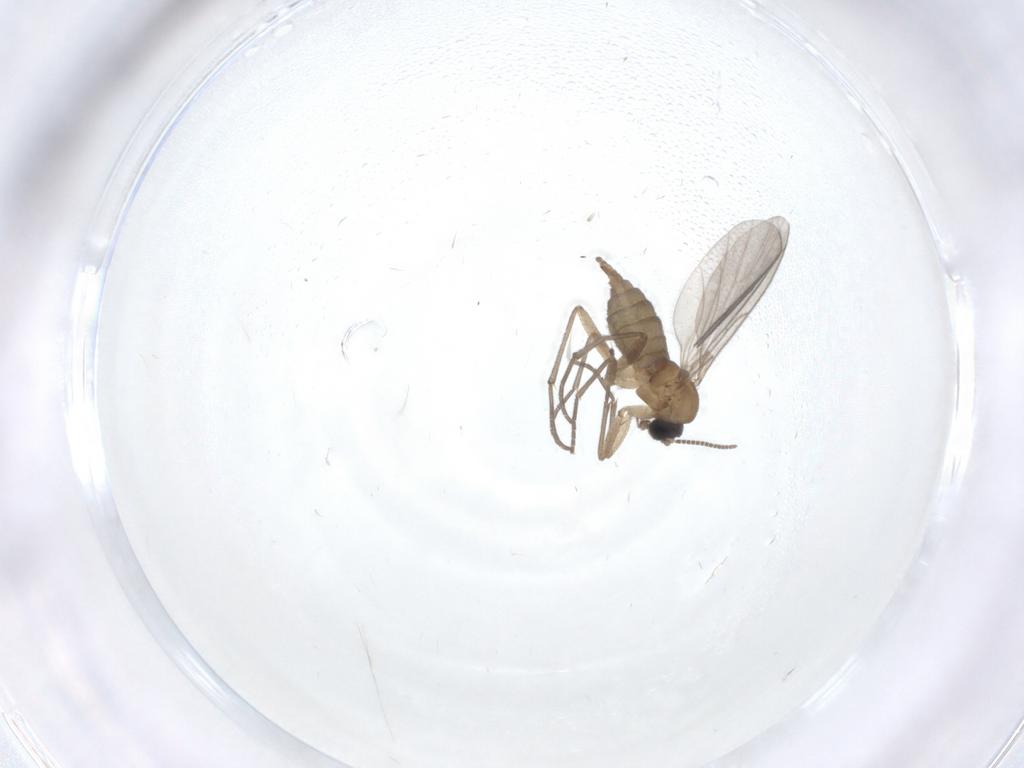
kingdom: Animalia
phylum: Arthropoda
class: Insecta
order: Diptera
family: Sciaridae
